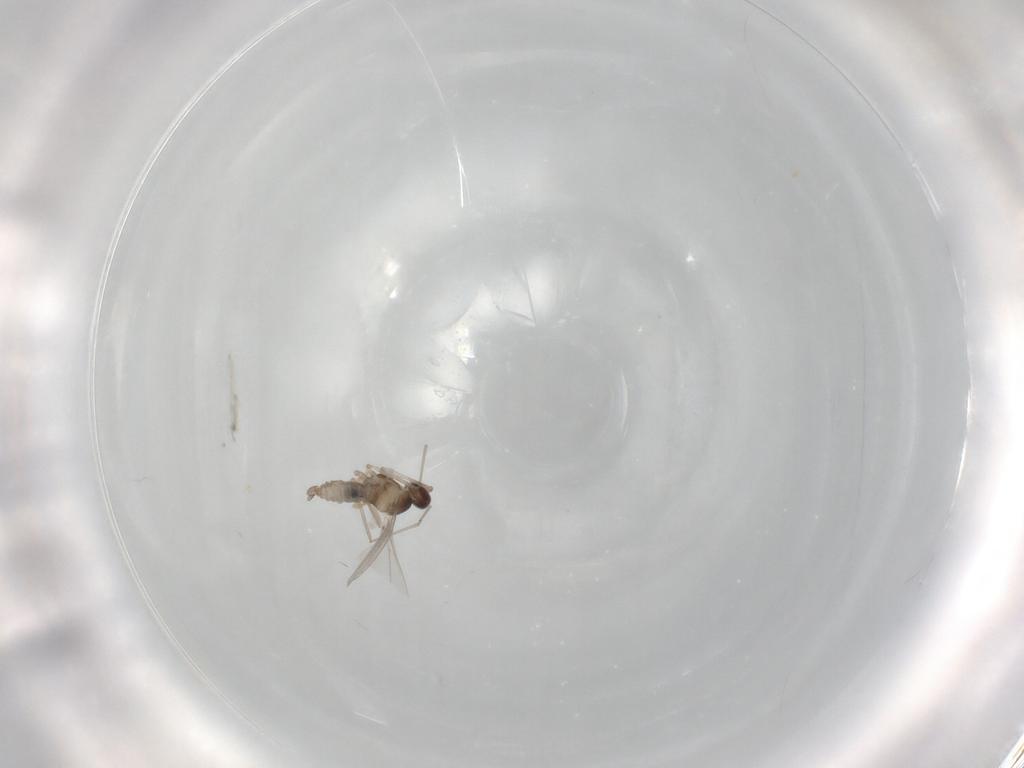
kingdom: Animalia
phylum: Arthropoda
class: Insecta
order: Diptera
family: Cecidomyiidae
